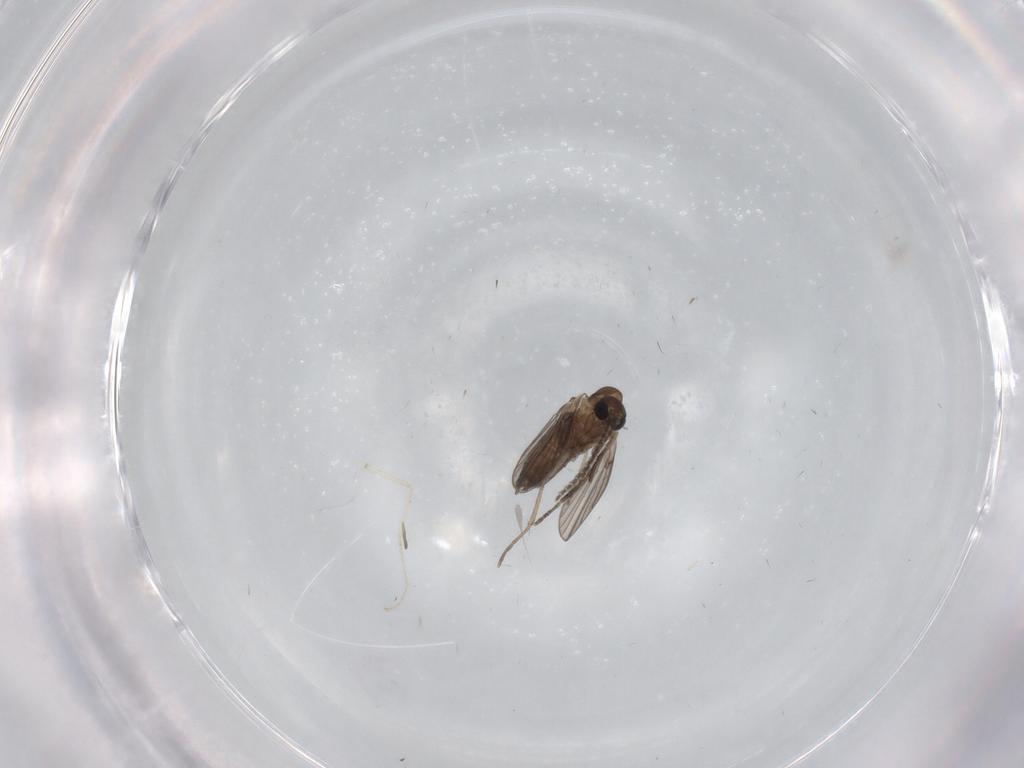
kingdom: Animalia
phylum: Arthropoda
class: Insecta
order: Diptera
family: Cecidomyiidae
